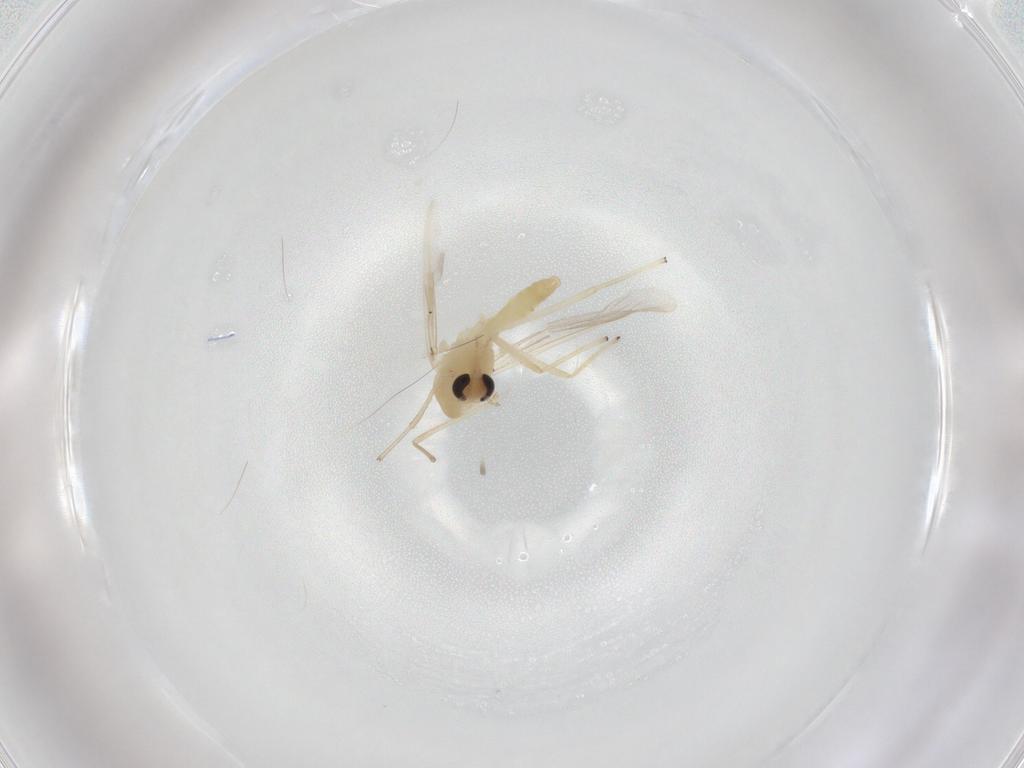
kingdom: Animalia
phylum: Arthropoda
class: Insecta
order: Diptera
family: Chironomidae
